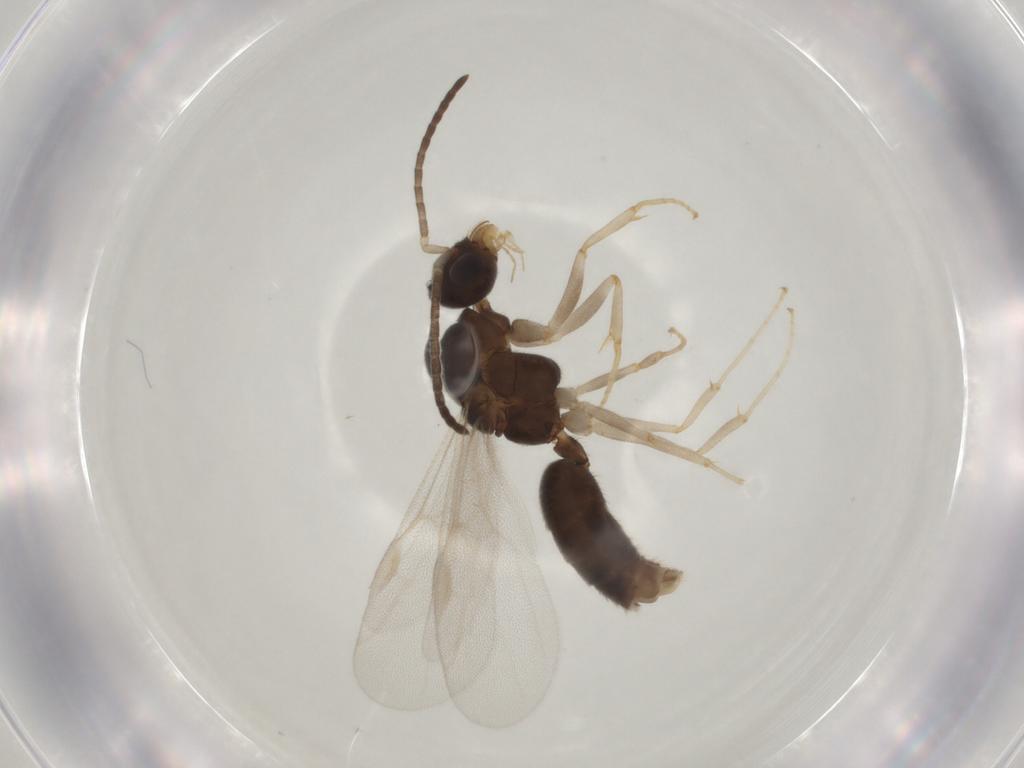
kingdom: Animalia
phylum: Arthropoda
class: Insecta
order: Hymenoptera
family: Formicidae
